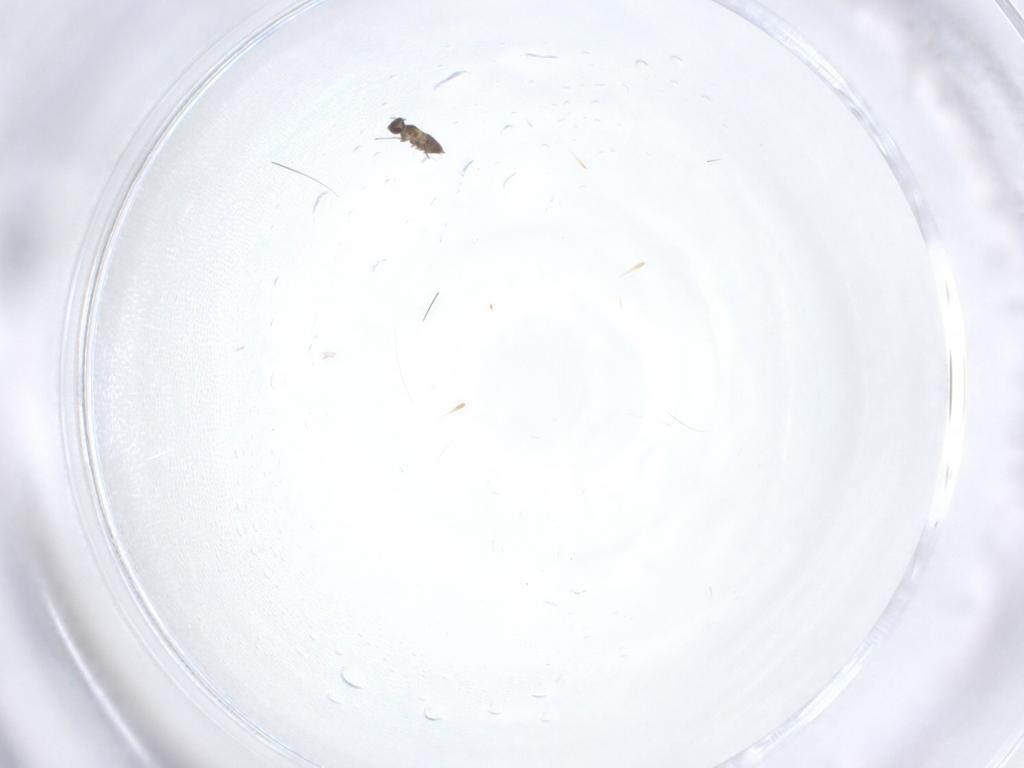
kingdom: Animalia
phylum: Arthropoda
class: Insecta
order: Hymenoptera
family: Mymaridae
